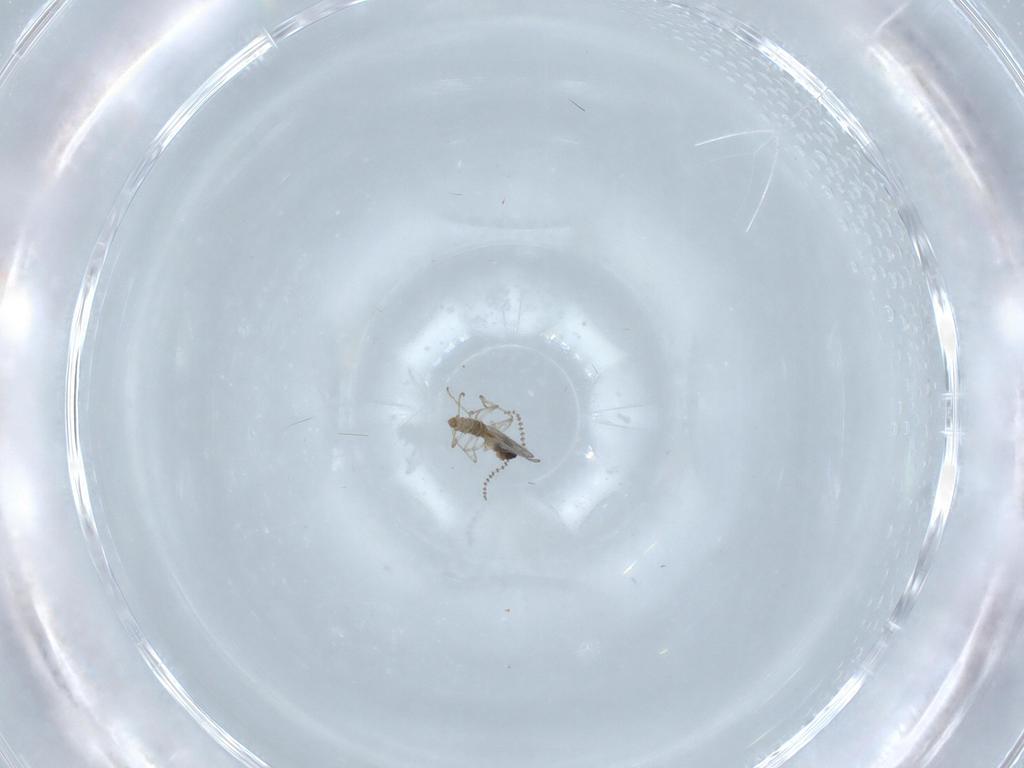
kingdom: Animalia
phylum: Arthropoda
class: Insecta
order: Diptera
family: Cecidomyiidae
